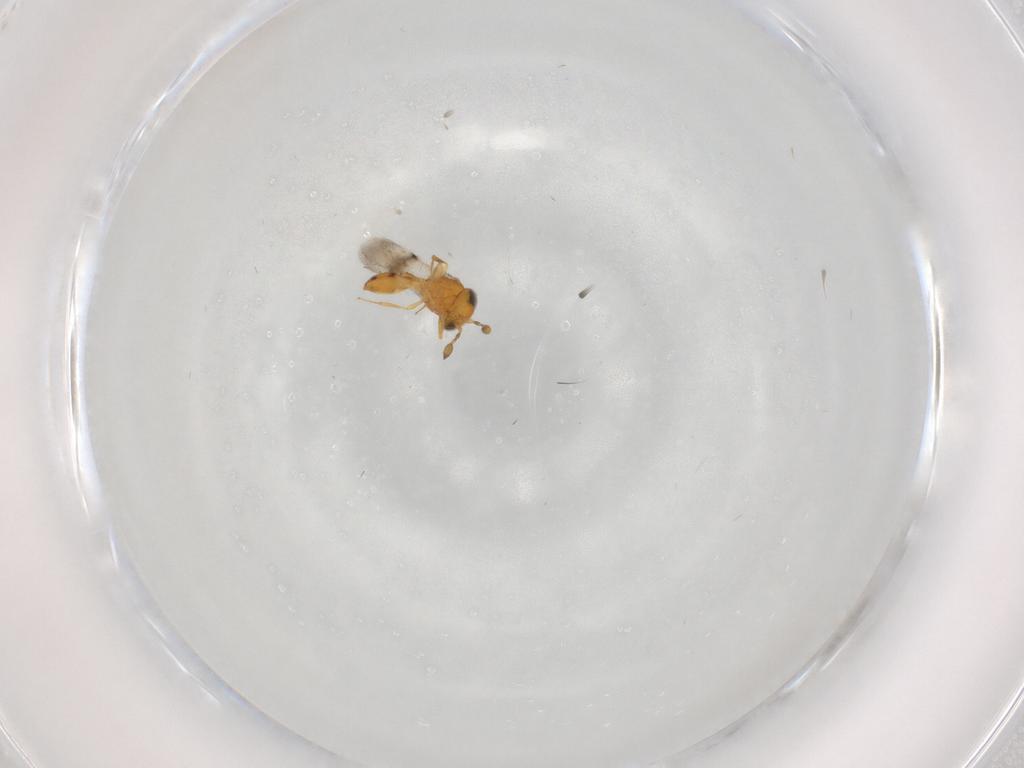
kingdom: Animalia
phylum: Arthropoda
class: Insecta
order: Hymenoptera
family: Scelionidae
